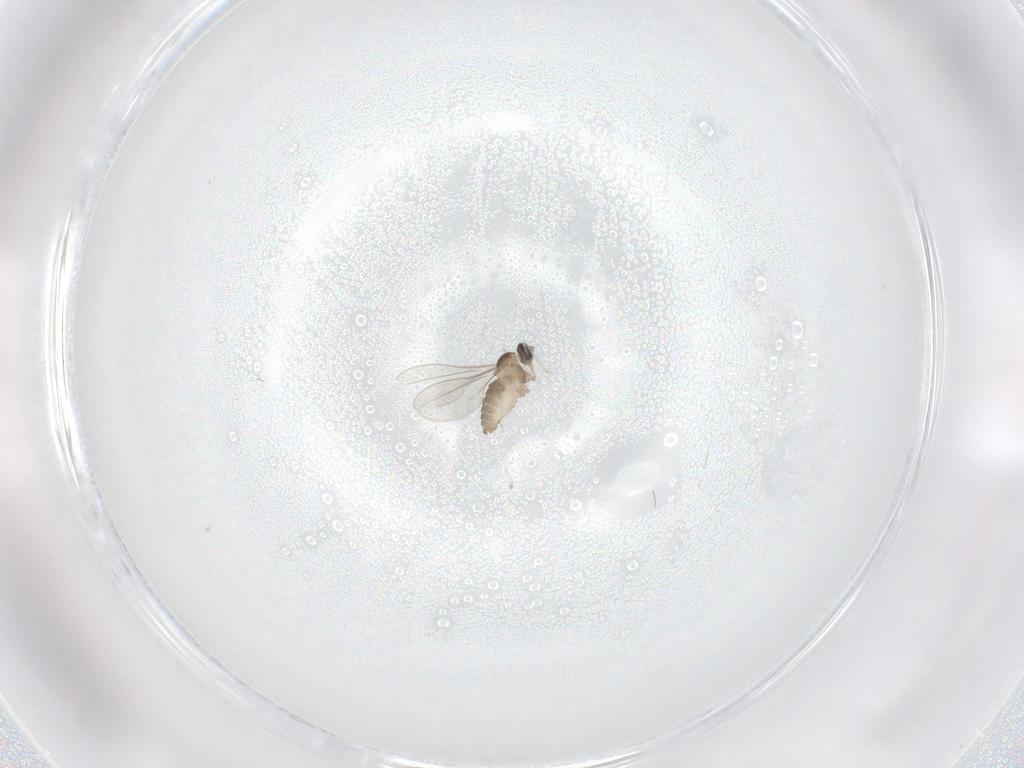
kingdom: Animalia
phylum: Arthropoda
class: Insecta
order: Diptera
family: Cecidomyiidae
